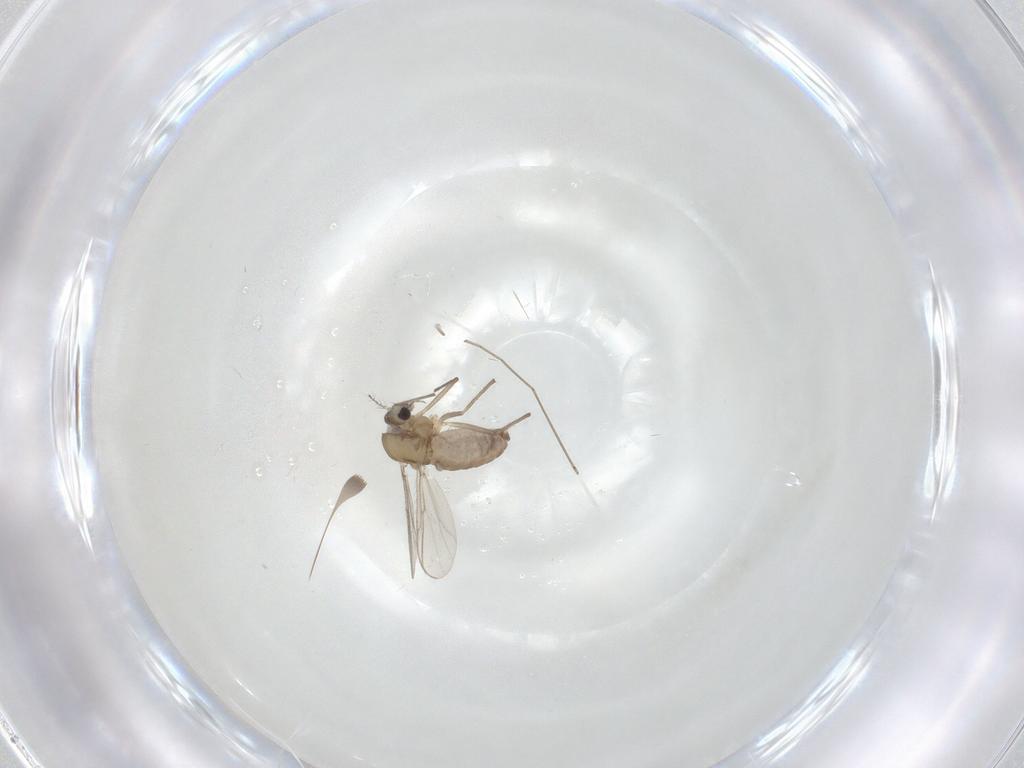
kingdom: Animalia
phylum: Arthropoda
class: Insecta
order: Diptera
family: Chironomidae
